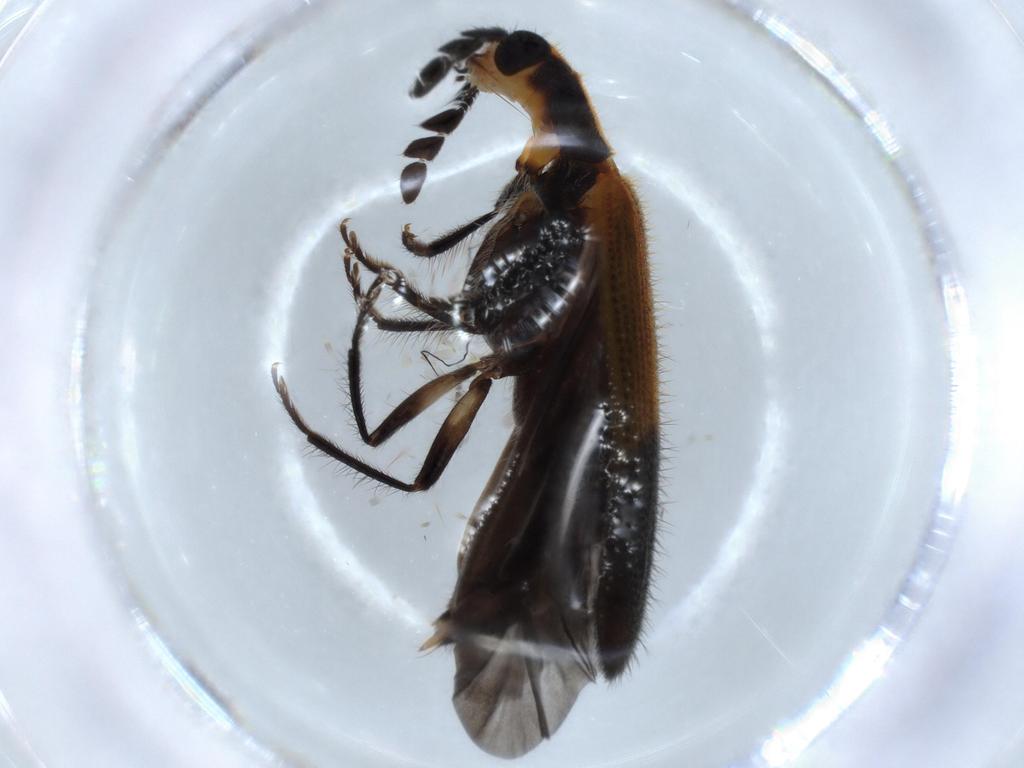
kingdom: Animalia
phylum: Arthropoda
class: Insecta
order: Coleoptera
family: Cleridae
